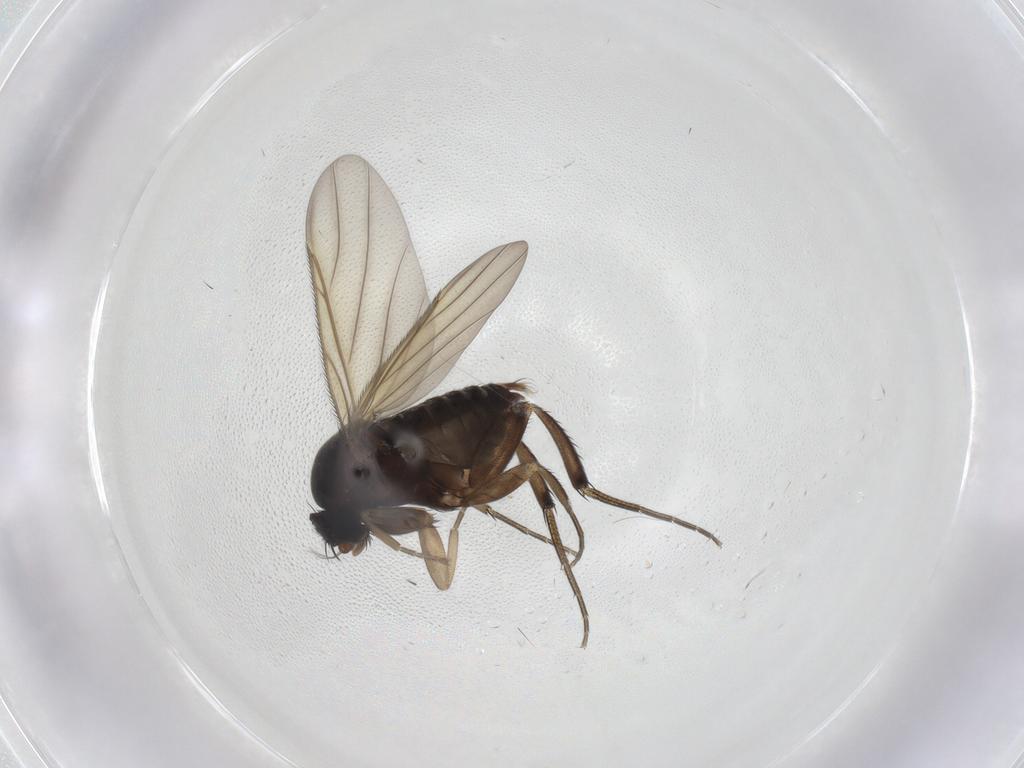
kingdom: Animalia
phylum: Arthropoda
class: Insecta
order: Diptera
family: Phoridae
